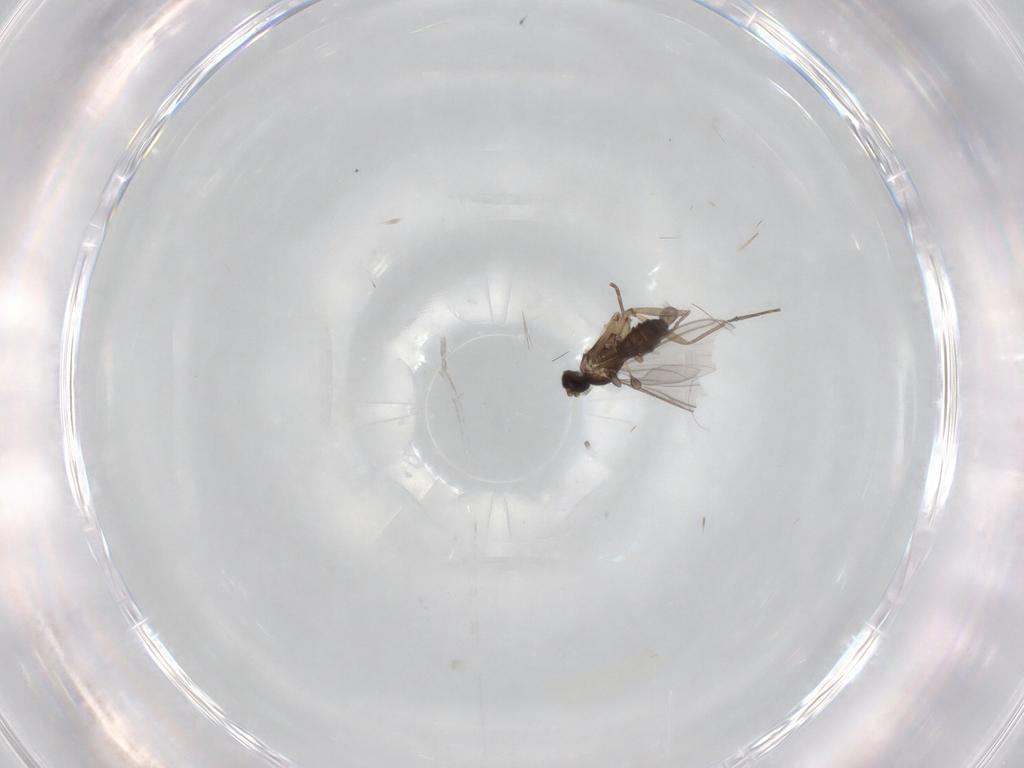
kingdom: Animalia
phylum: Arthropoda
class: Insecta
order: Diptera
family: Sciaridae
